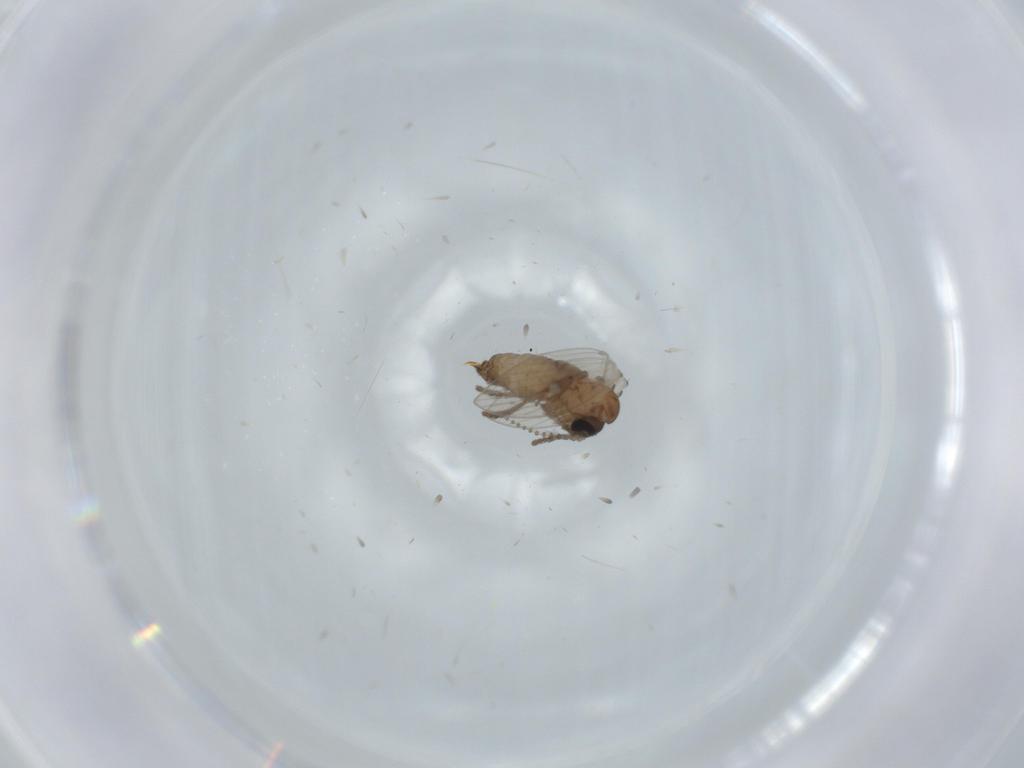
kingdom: Animalia
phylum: Arthropoda
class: Insecta
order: Diptera
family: Psychodidae
